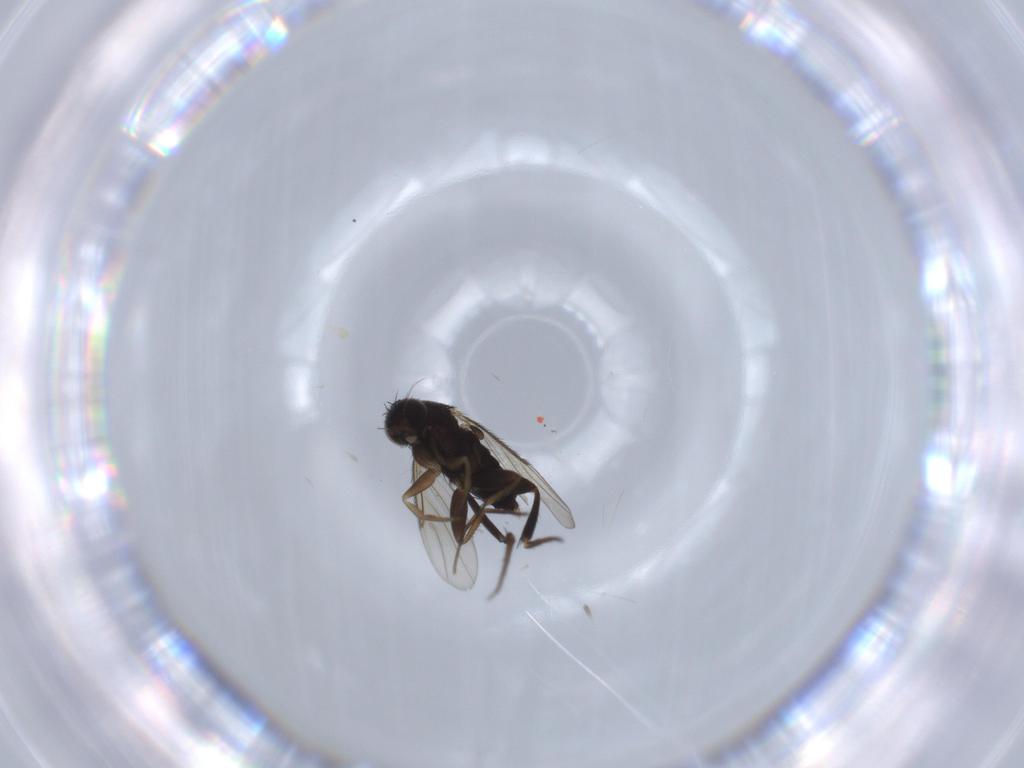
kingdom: Animalia
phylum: Arthropoda
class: Insecta
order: Diptera
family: Phoridae
